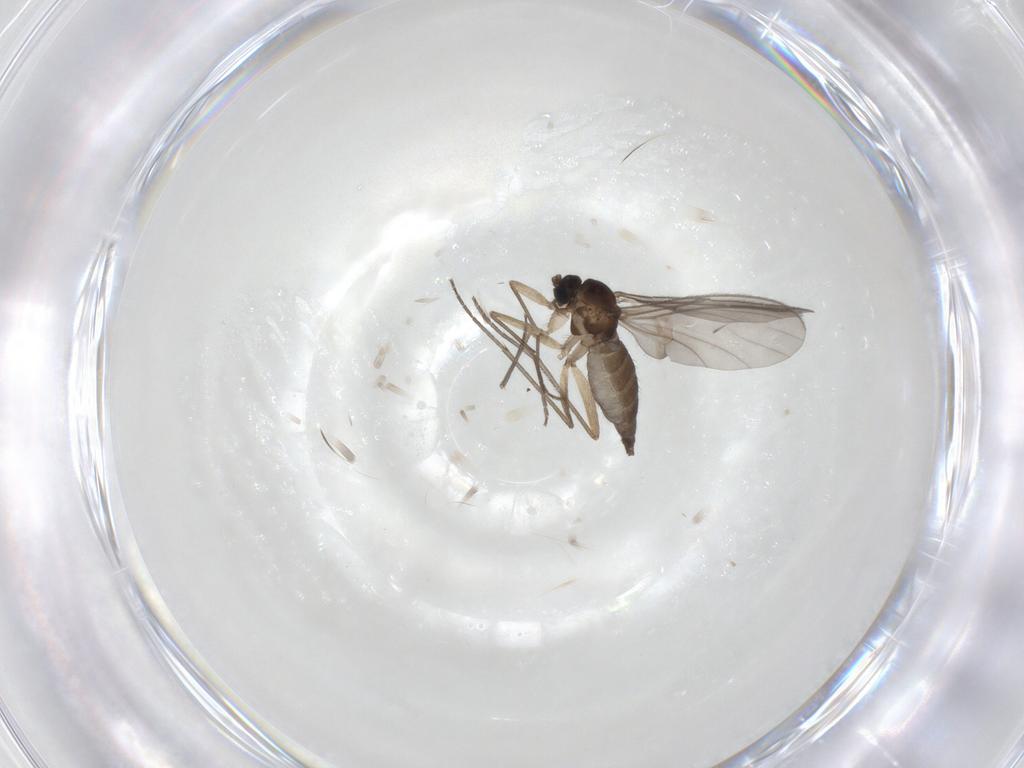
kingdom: Animalia
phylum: Arthropoda
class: Insecta
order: Diptera
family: Sciaridae
